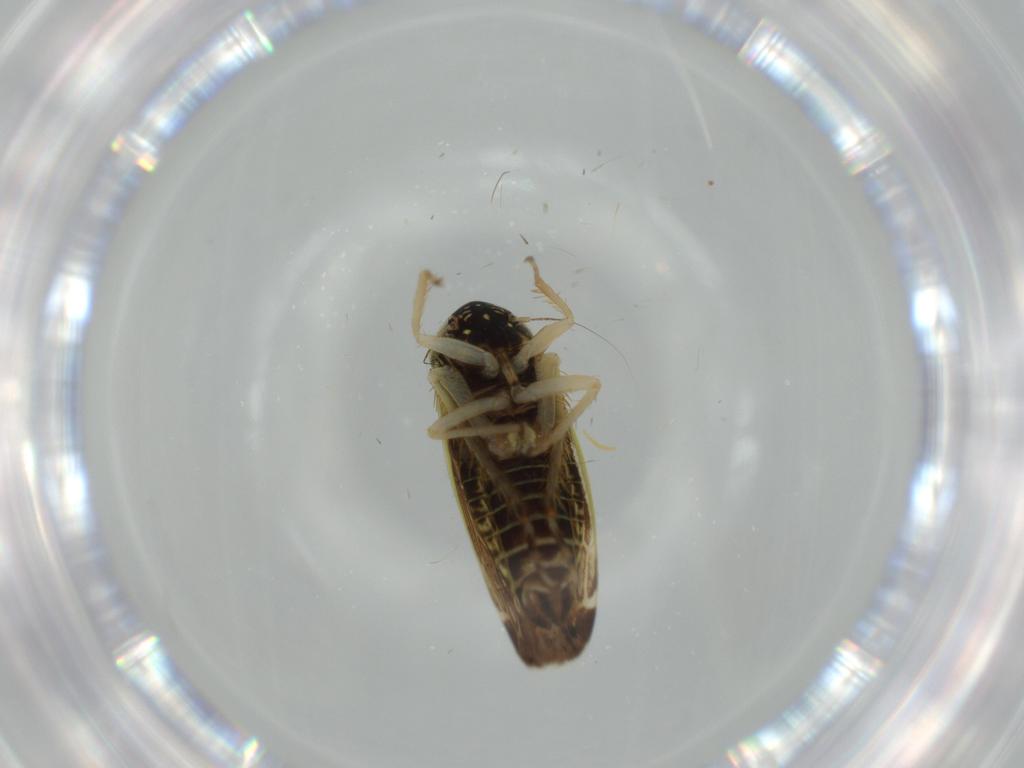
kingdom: Animalia
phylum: Arthropoda
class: Insecta
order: Hemiptera
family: Cicadellidae
